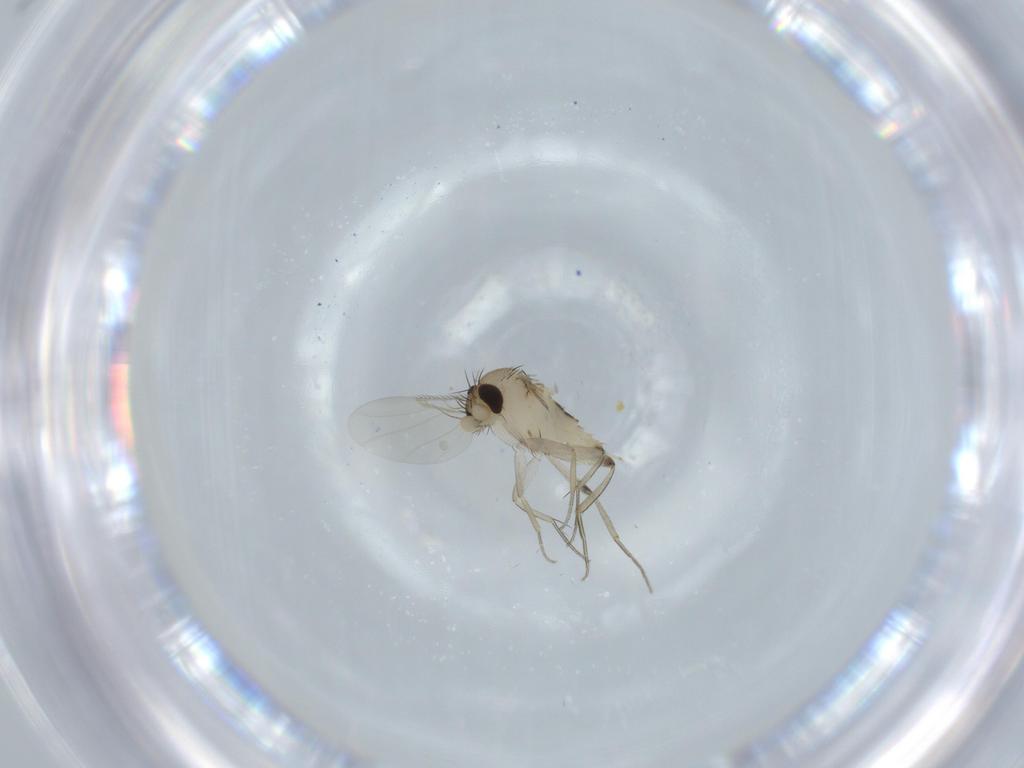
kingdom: Animalia
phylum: Arthropoda
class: Insecta
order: Diptera
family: Phoridae
